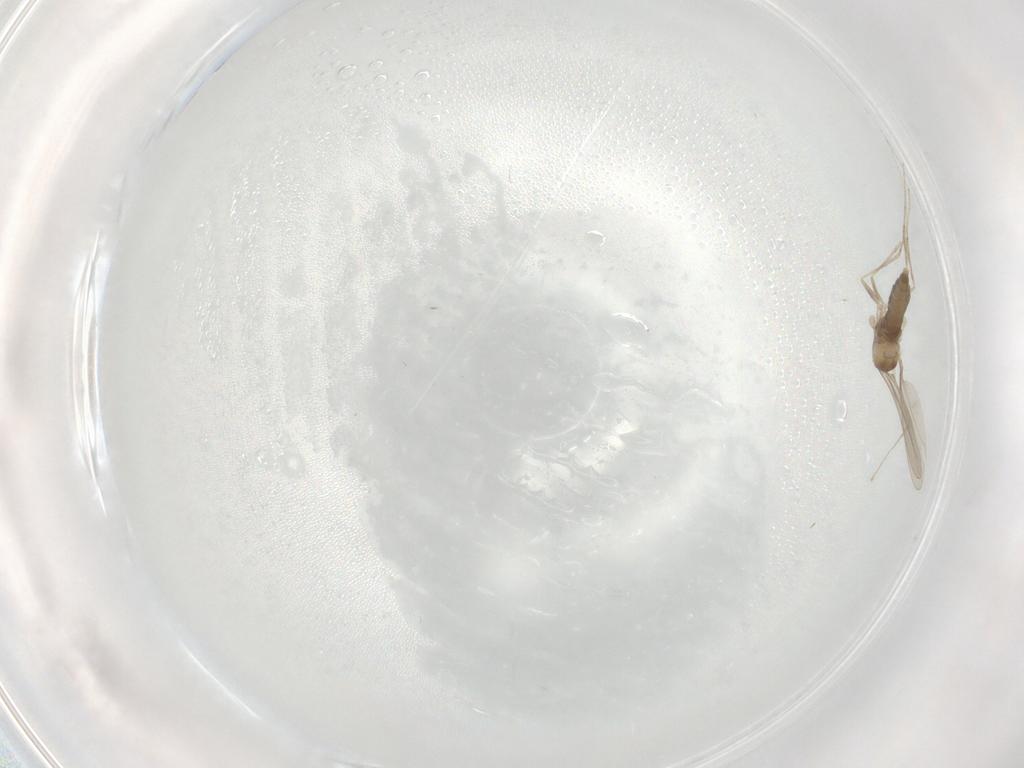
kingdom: Animalia
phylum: Arthropoda
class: Insecta
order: Diptera
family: Cecidomyiidae
